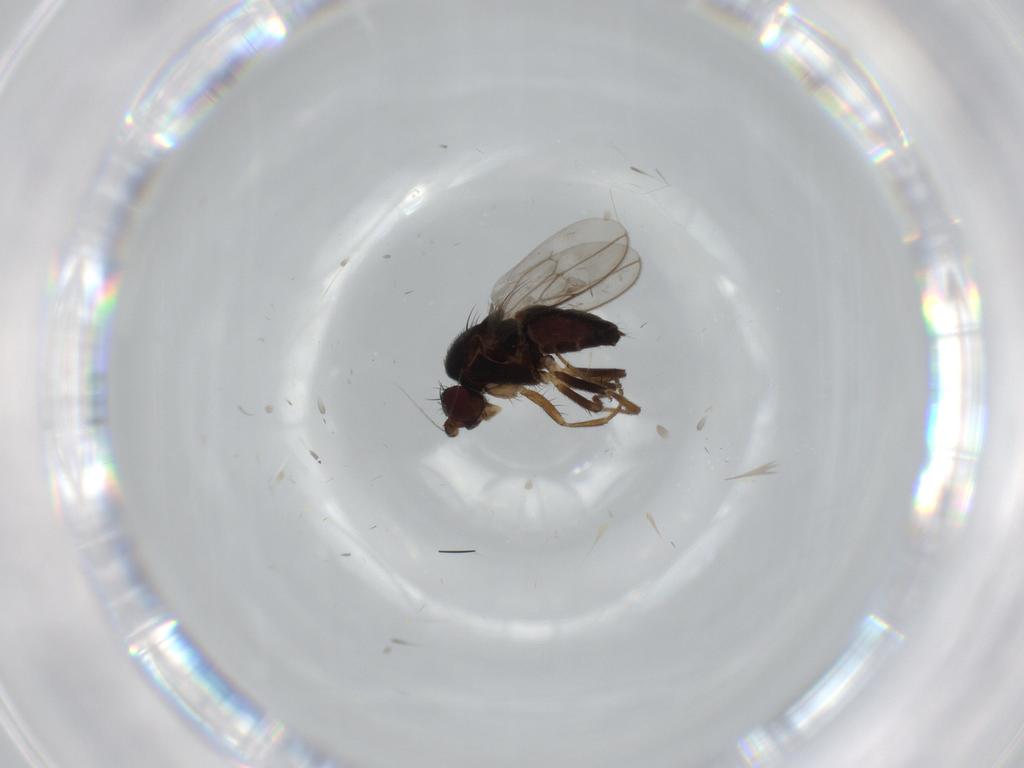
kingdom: Animalia
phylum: Arthropoda
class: Insecta
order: Diptera
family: Sphaeroceridae
